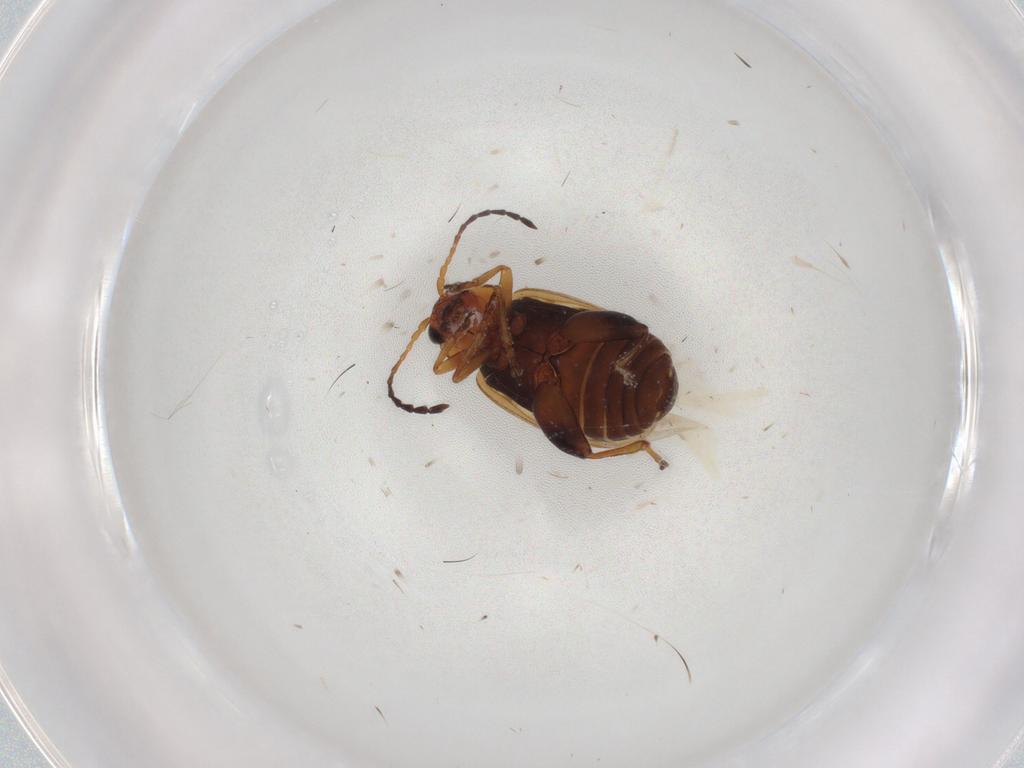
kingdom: Animalia
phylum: Arthropoda
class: Insecta
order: Coleoptera
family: Chrysomelidae
